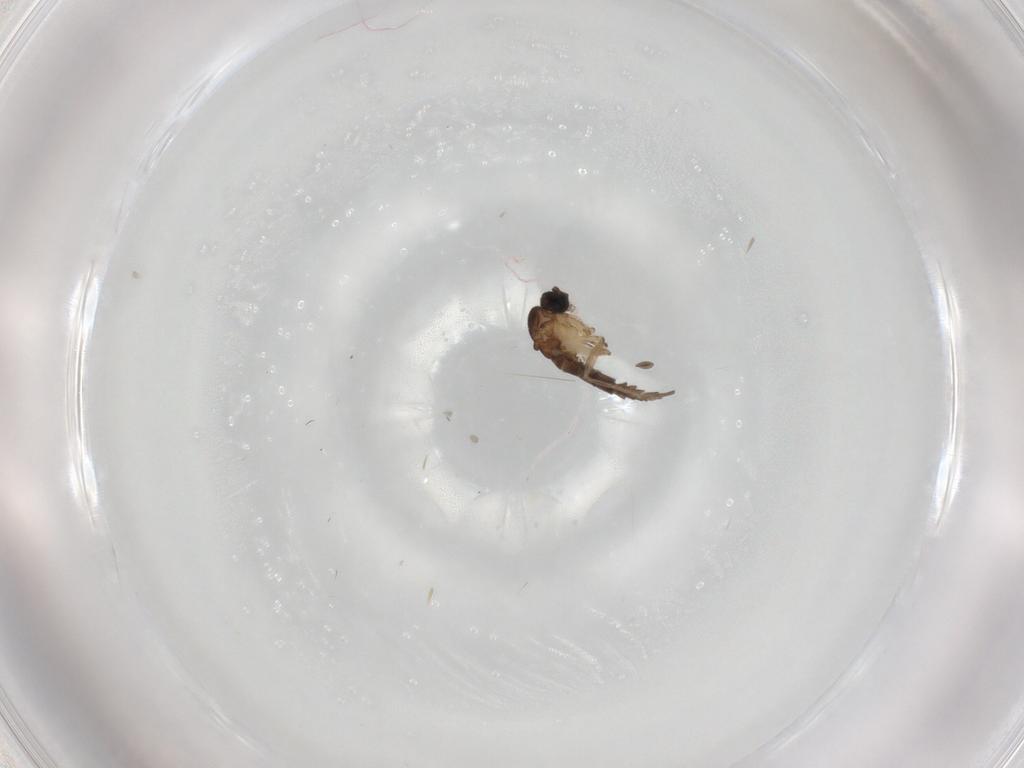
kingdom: Animalia
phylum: Arthropoda
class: Insecta
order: Diptera
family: Sciaridae
